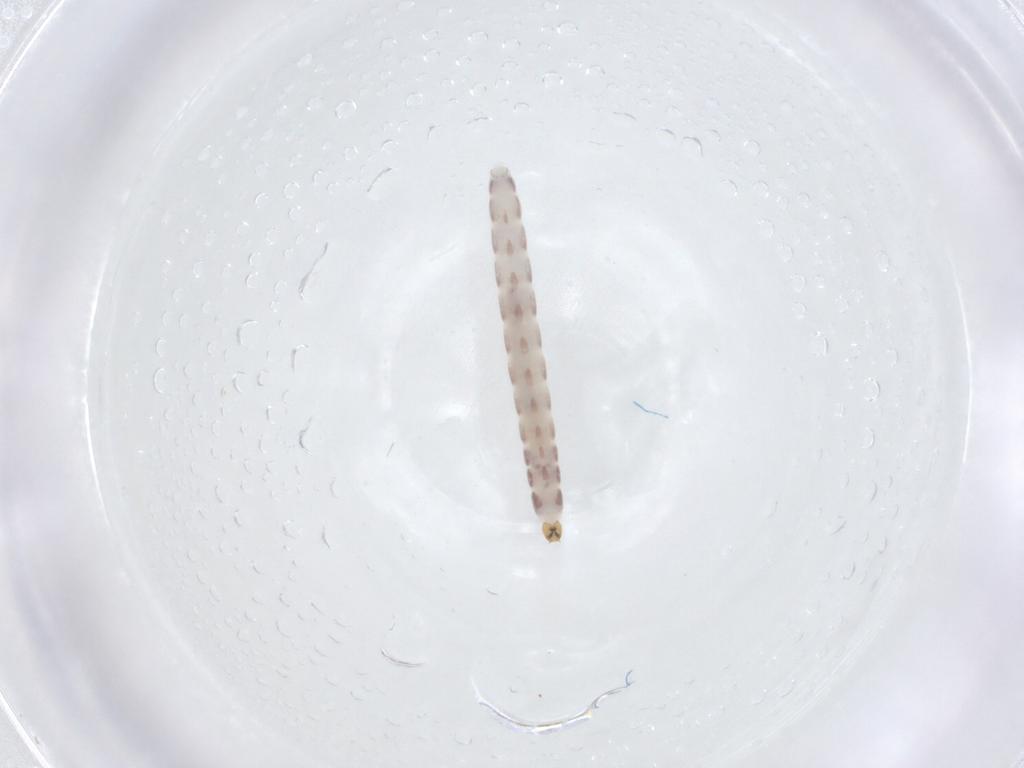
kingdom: Animalia
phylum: Arthropoda
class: Insecta
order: Diptera
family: Chironomidae
